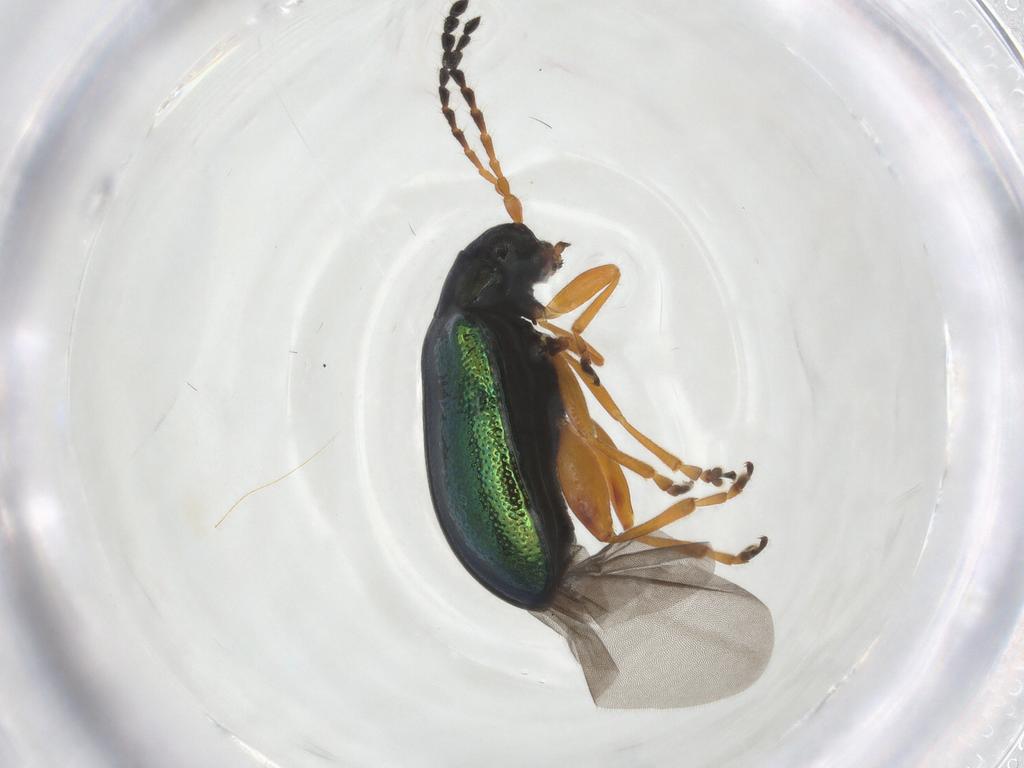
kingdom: Animalia
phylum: Arthropoda
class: Insecta
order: Coleoptera
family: Chrysomelidae
